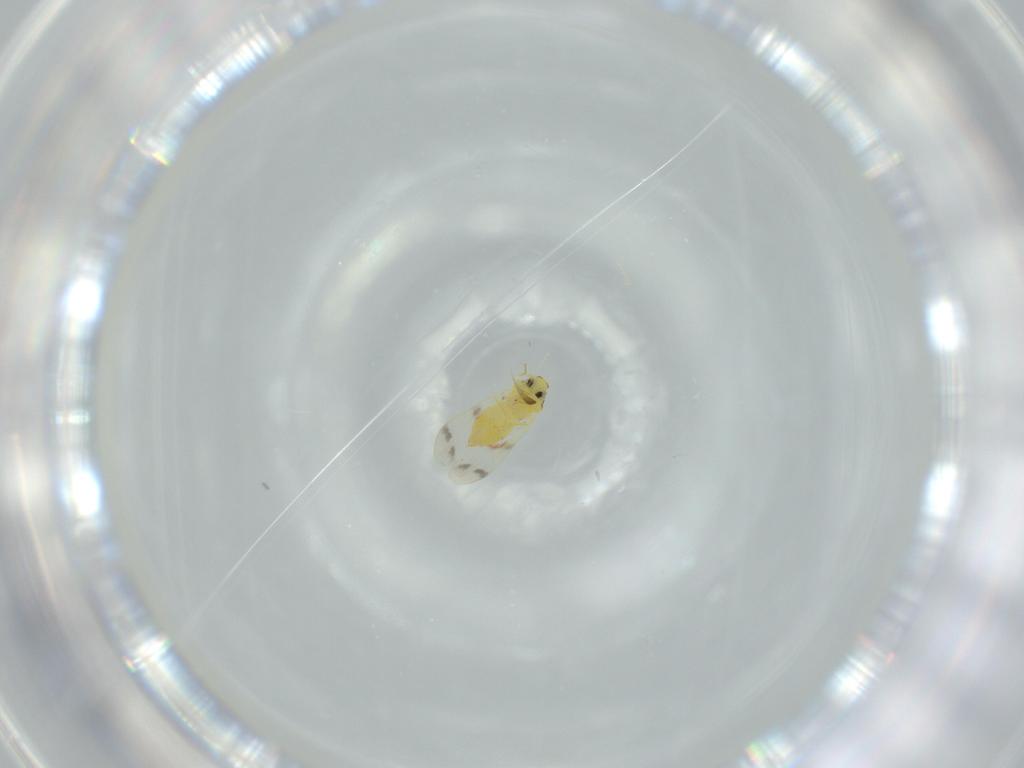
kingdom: Animalia
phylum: Arthropoda
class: Insecta
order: Hemiptera
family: Aleyrodidae
